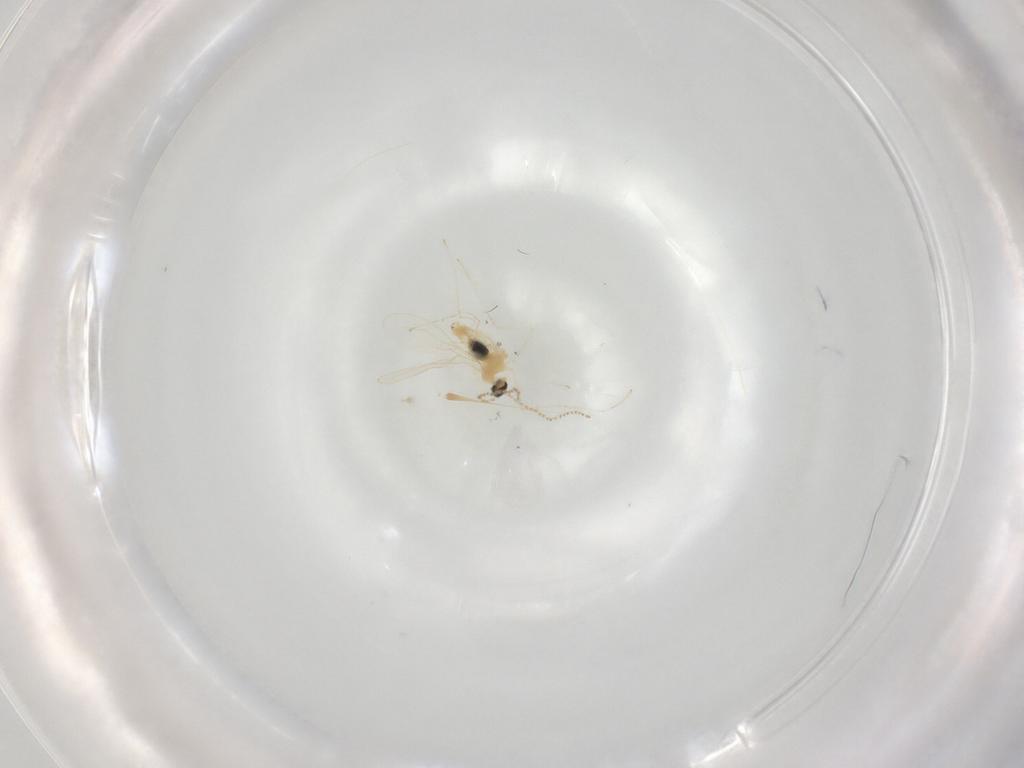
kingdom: Animalia
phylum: Arthropoda
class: Insecta
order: Diptera
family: Cecidomyiidae
